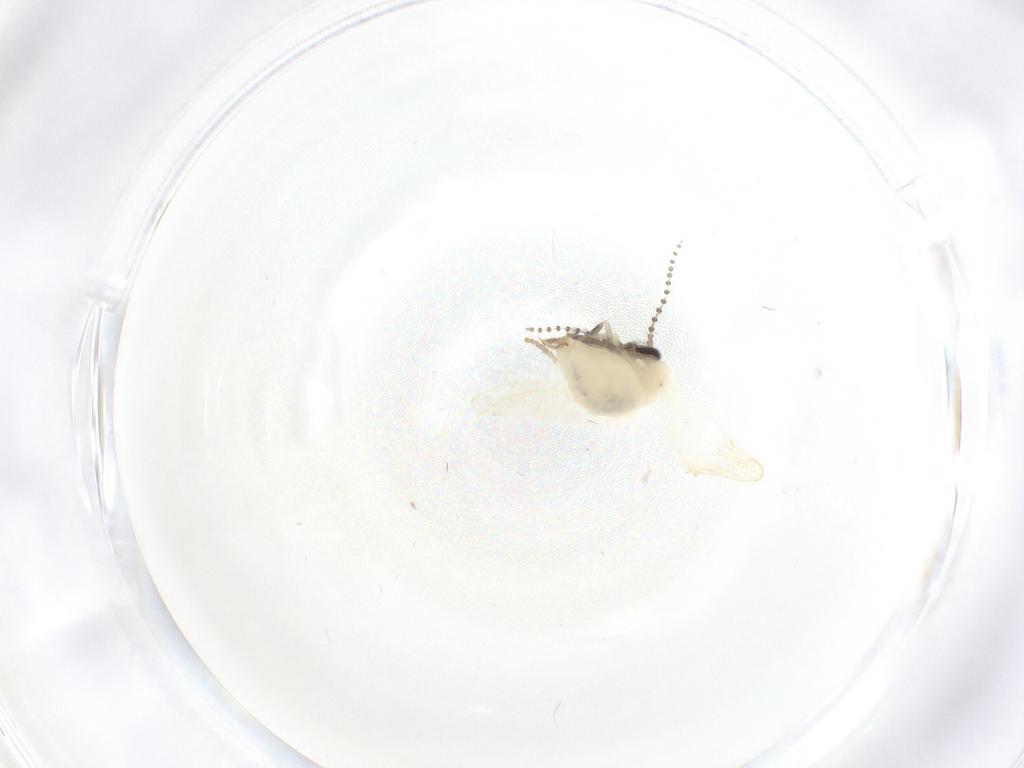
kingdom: Animalia
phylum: Arthropoda
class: Insecta
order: Diptera
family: Psychodidae
